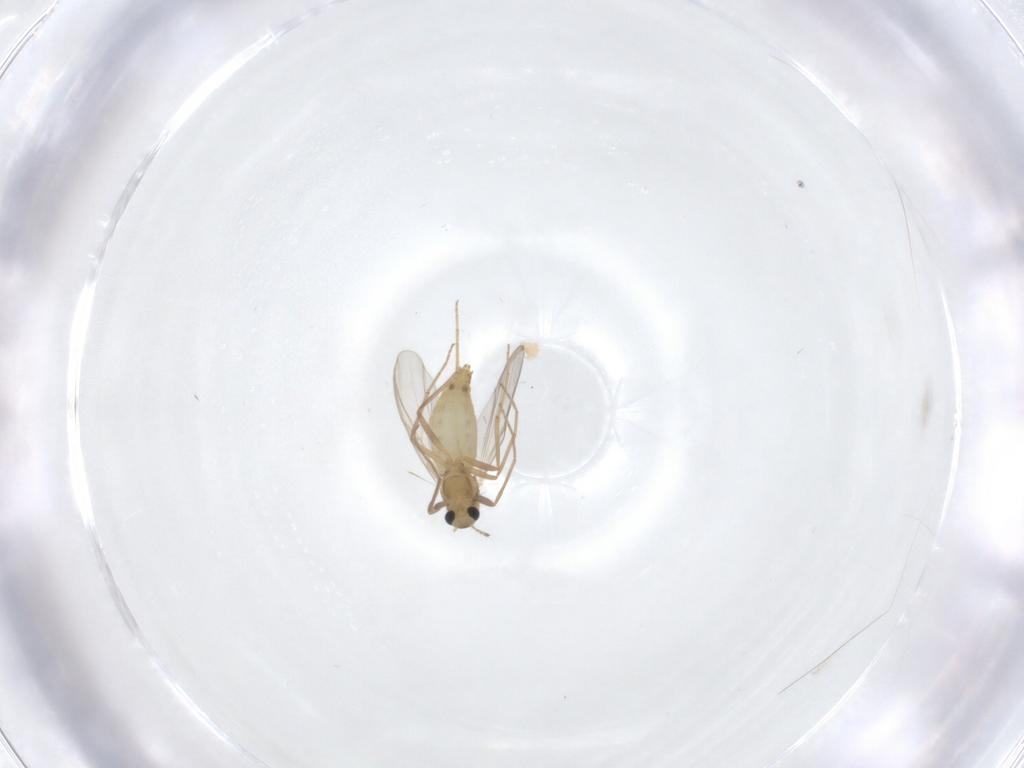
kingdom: Animalia
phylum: Arthropoda
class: Insecta
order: Diptera
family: Chironomidae
